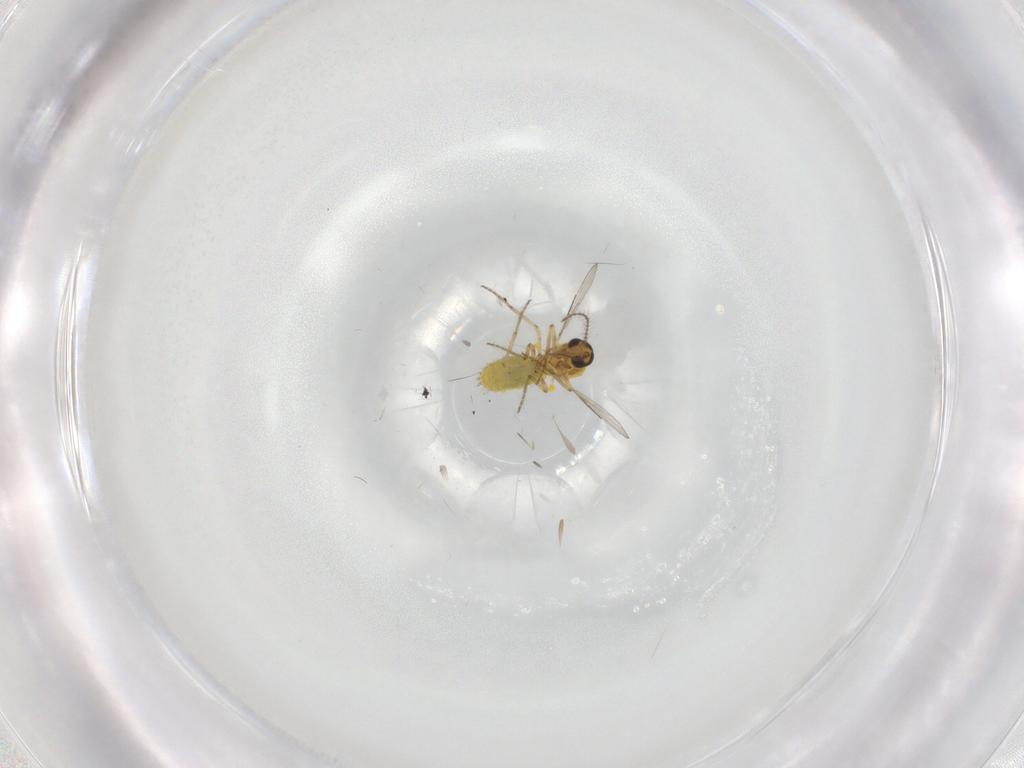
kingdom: Animalia
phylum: Arthropoda
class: Insecta
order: Diptera
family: Ceratopogonidae
